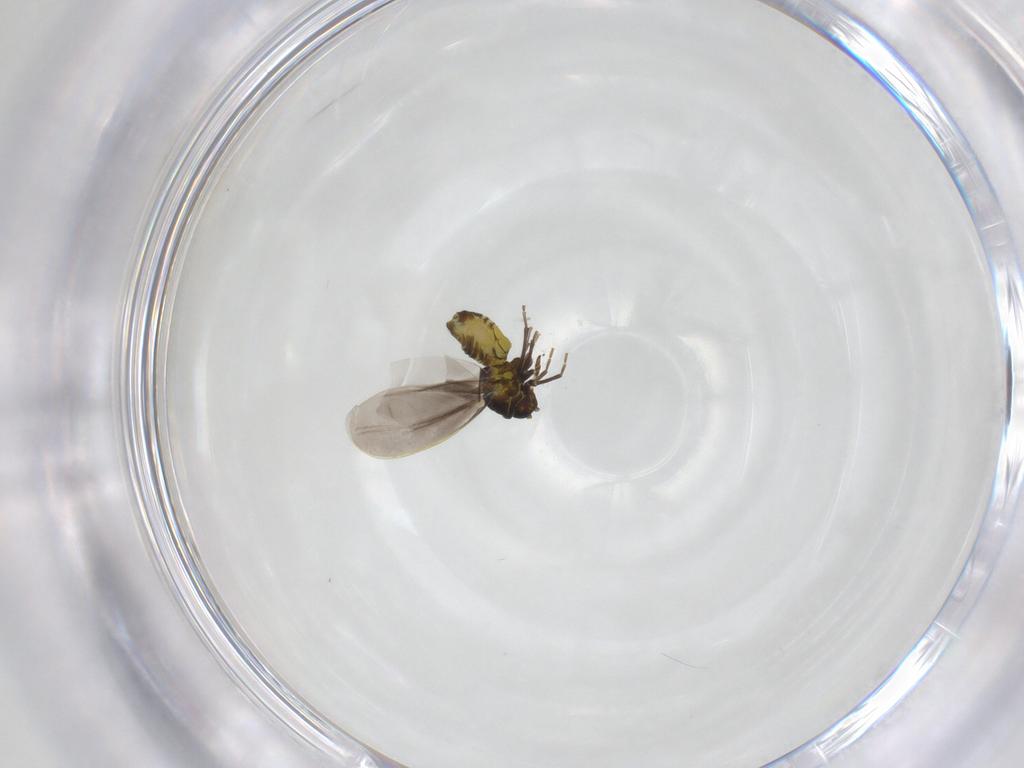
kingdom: Animalia
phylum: Arthropoda
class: Insecta
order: Hemiptera
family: Aleyrodidae
